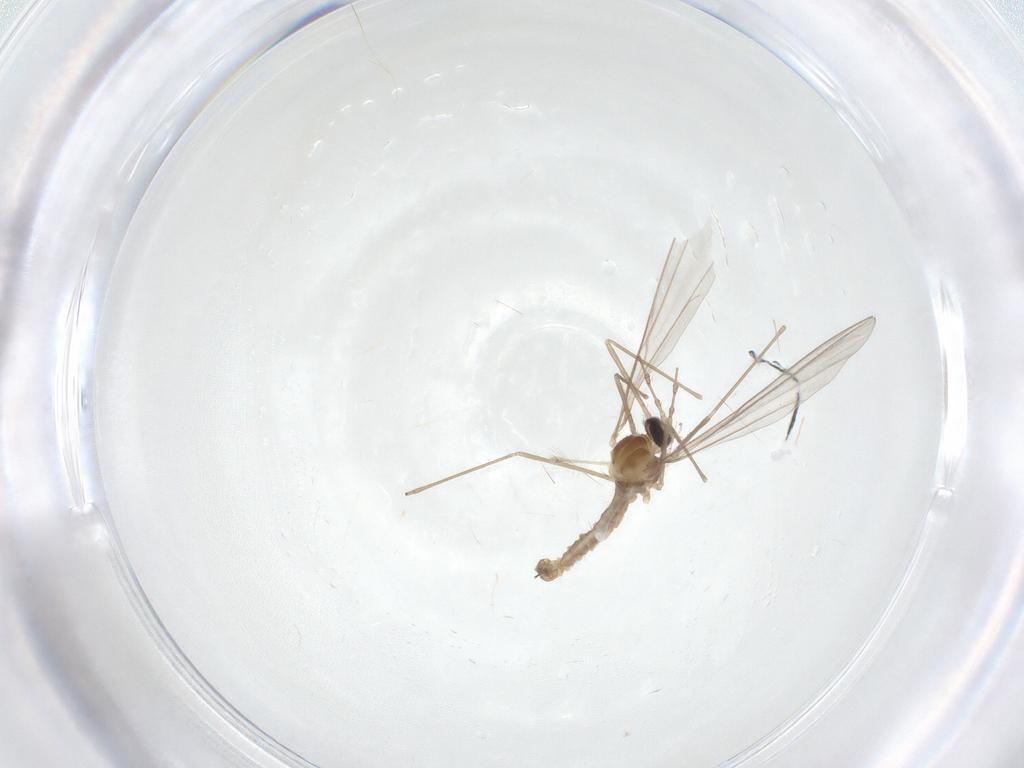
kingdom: Animalia
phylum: Arthropoda
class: Insecta
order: Diptera
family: Cecidomyiidae
